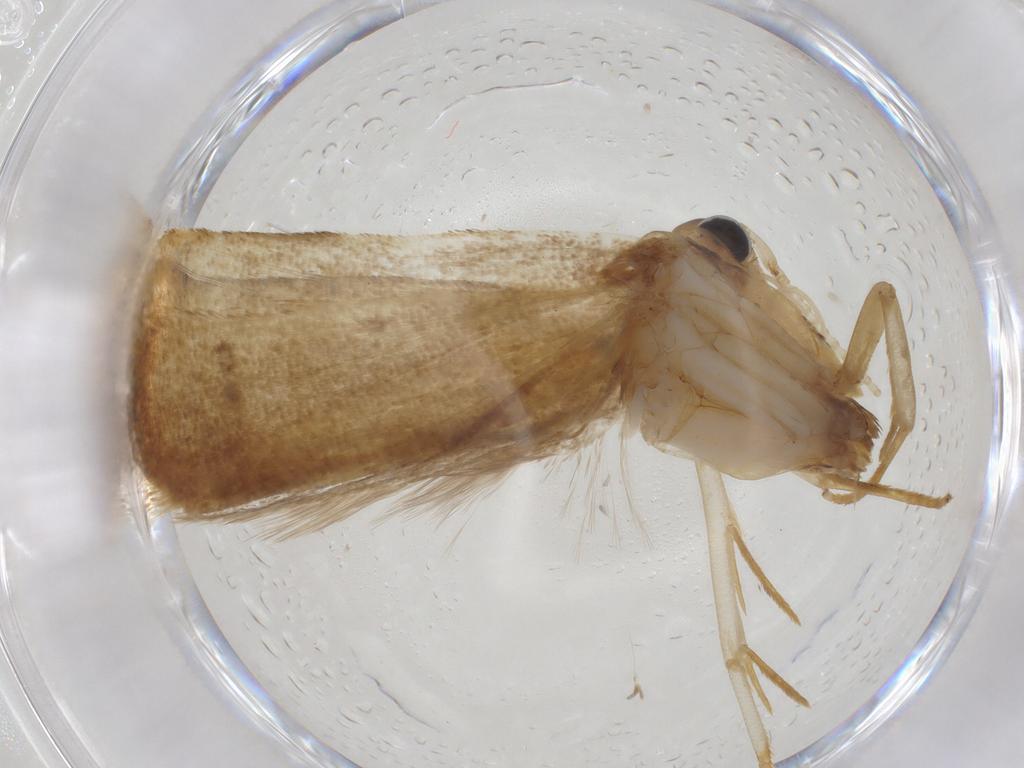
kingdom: Animalia
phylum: Arthropoda
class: Insecta
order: Lepidoptera
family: Lecithoceridae
